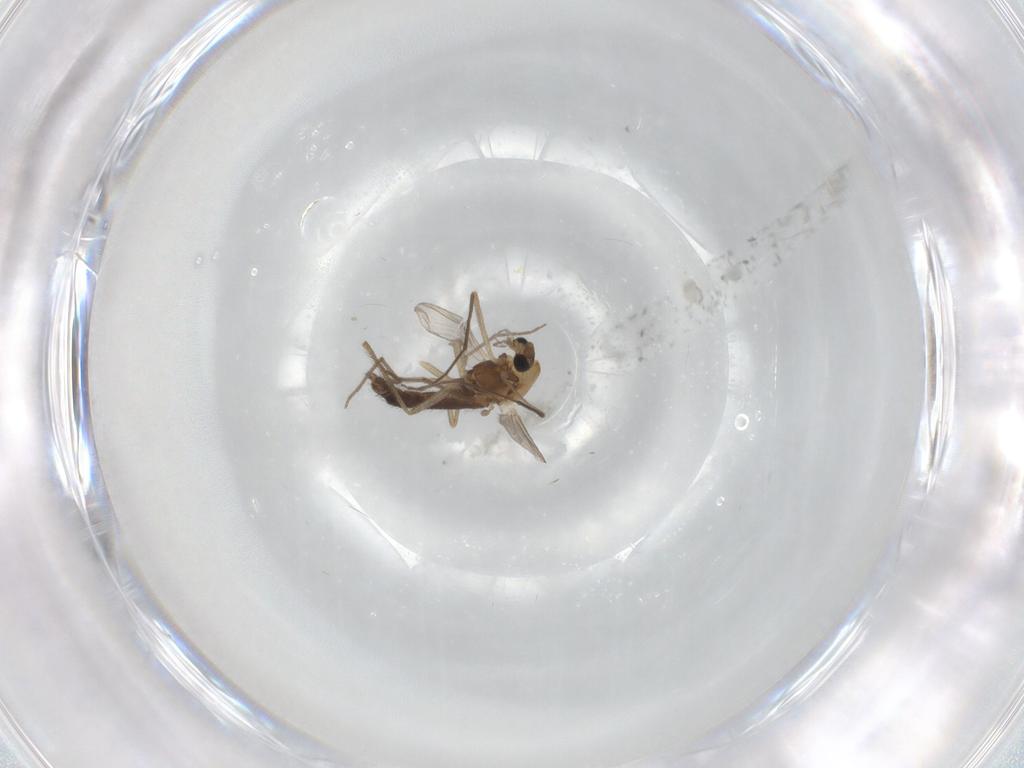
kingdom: Animalia
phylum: Arthropoda
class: Insecta
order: Diptera
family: Chironomidae
